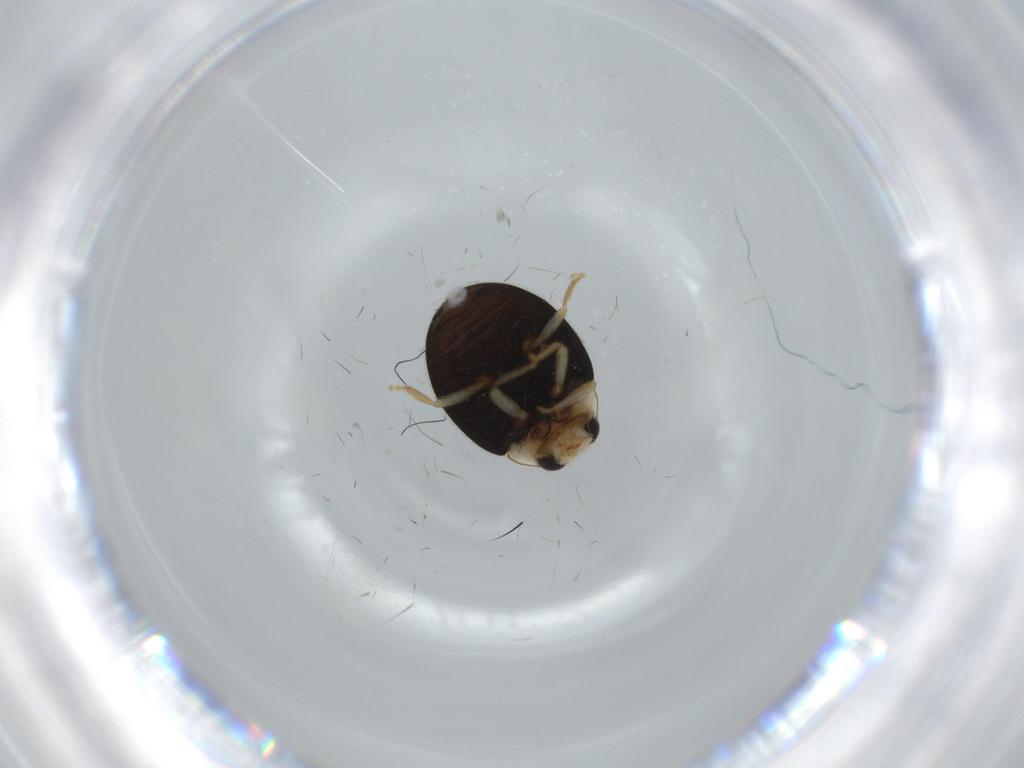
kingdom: Animalia
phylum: Arthropoda
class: Insecta
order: Coleoptera
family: Coccinellidae
